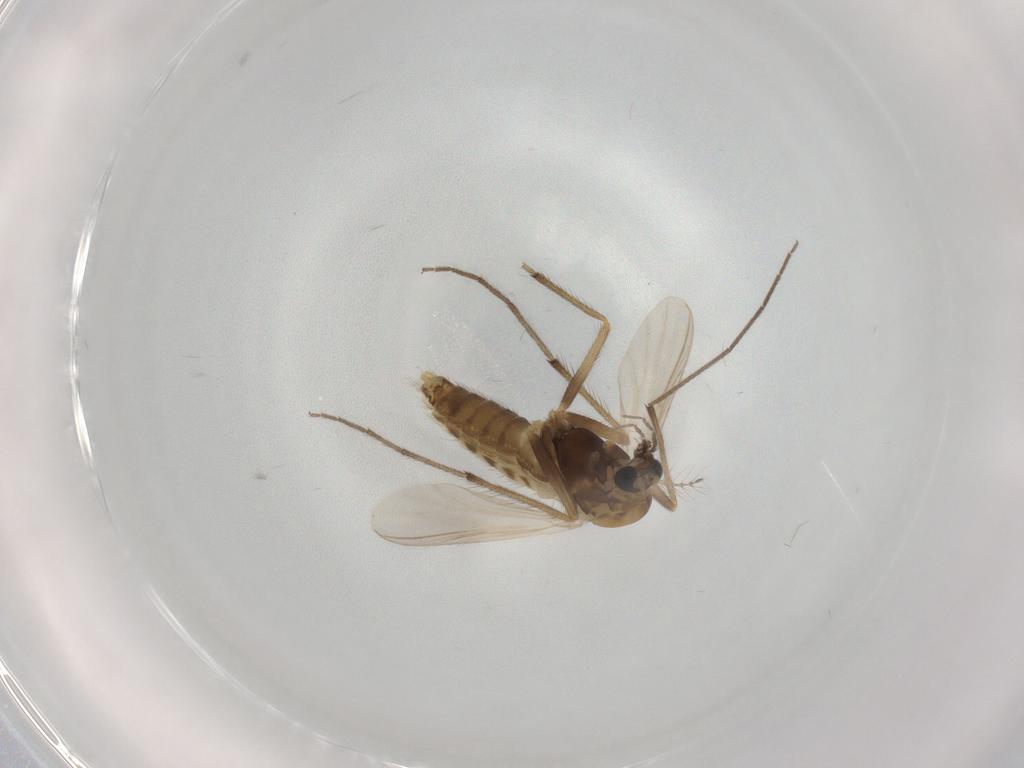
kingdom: Animalia
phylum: Arthropoda
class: Insecta
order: Diptera
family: Chironomidae
